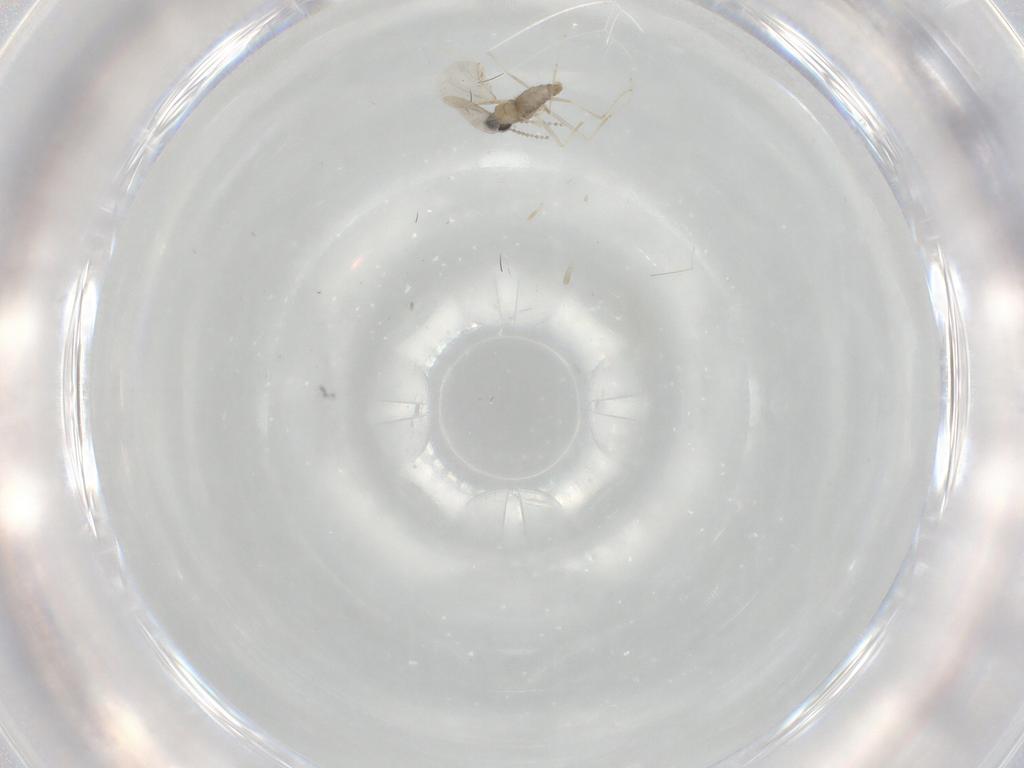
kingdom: Animalia
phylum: Arthropoda
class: Insecta
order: Diptera
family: Cecidomyiidae
